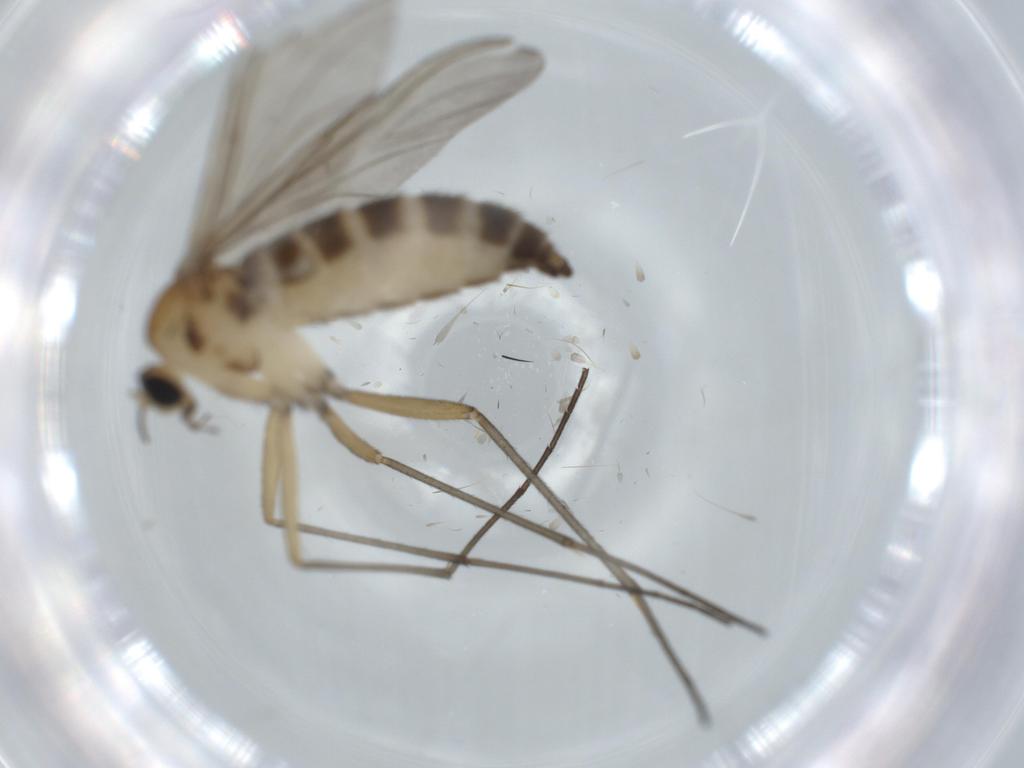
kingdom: Animalia
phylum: Arthropoda
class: Insecta
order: Diptera
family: Sciaridae
